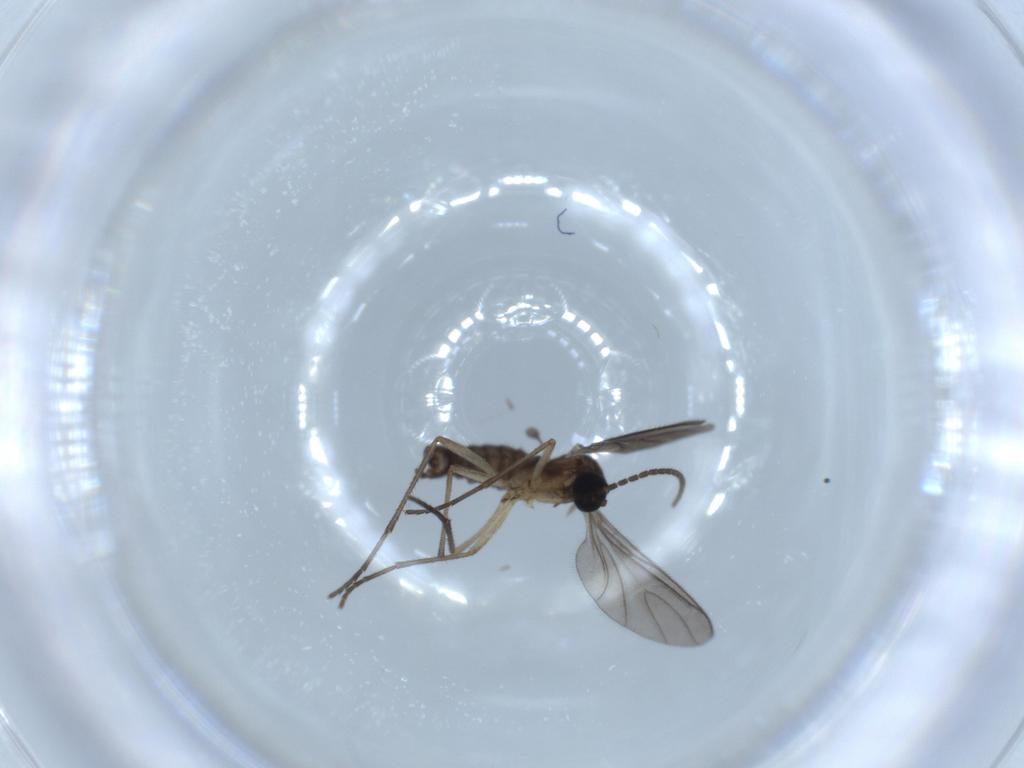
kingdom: Animalia
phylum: Arthropoda
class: Insecta
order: Diptera
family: Sciaridae
